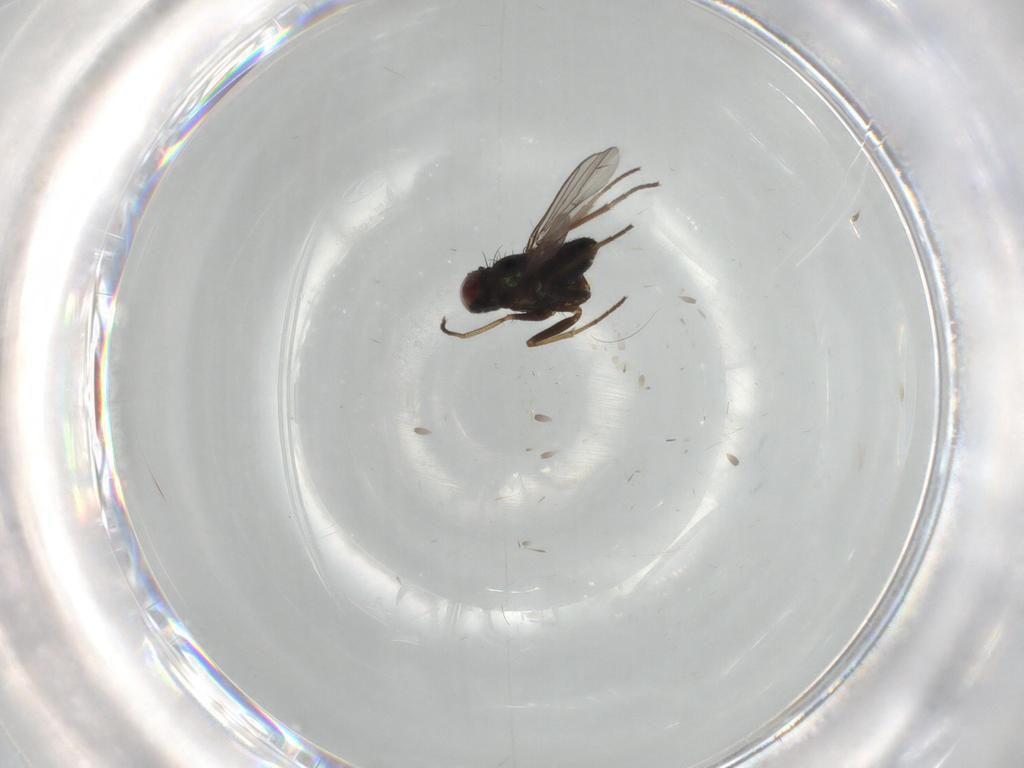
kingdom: Animalia
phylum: Arthropoda
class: Insecta
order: Diptera
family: Dolichopodidae
